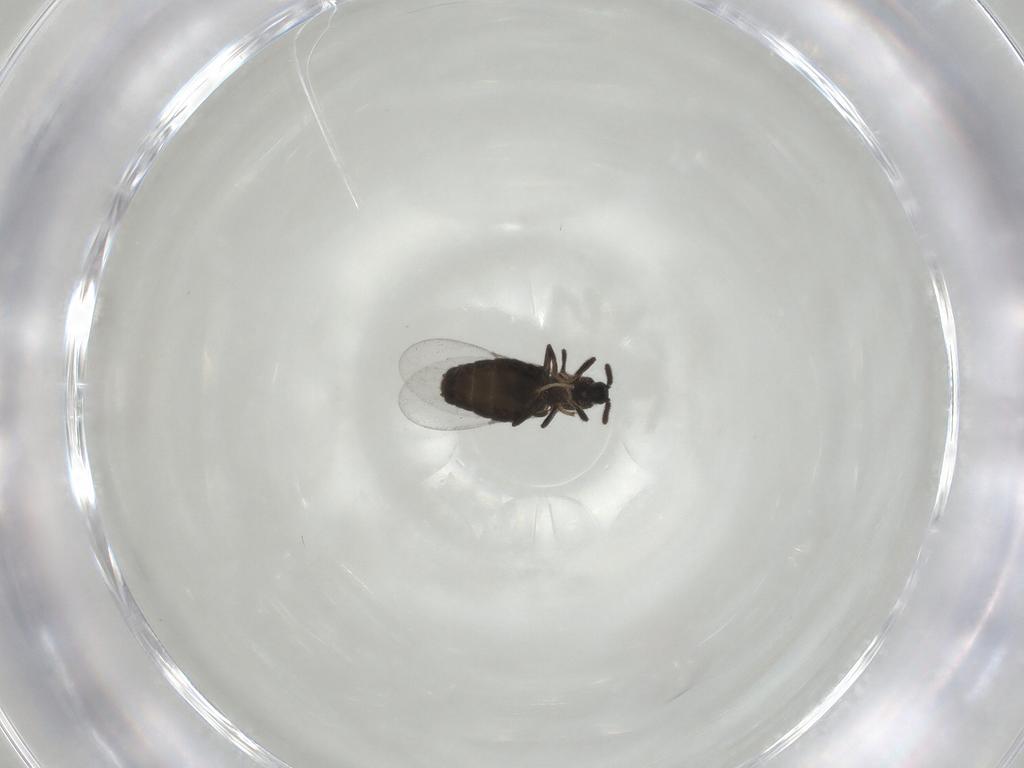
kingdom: Animalia
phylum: Arthropoda
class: Insecta
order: Diptera
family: Scatopsidae
